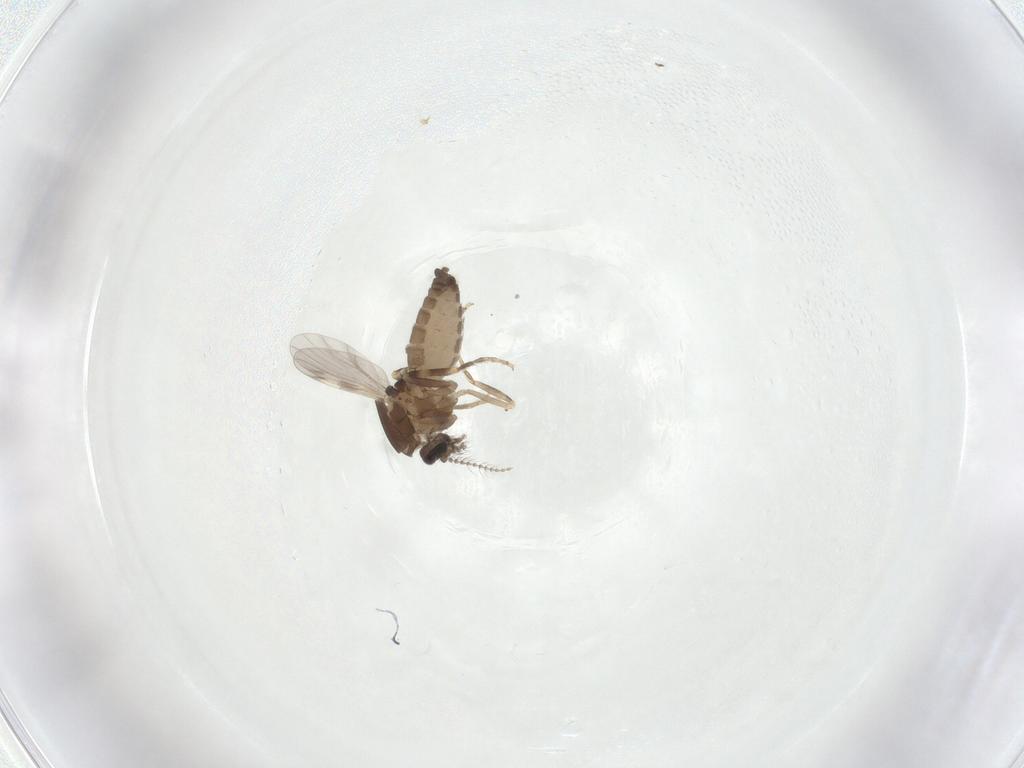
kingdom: Animalia
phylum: Arthropoda
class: Insecta
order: Diptera
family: Ceratopogonidae
